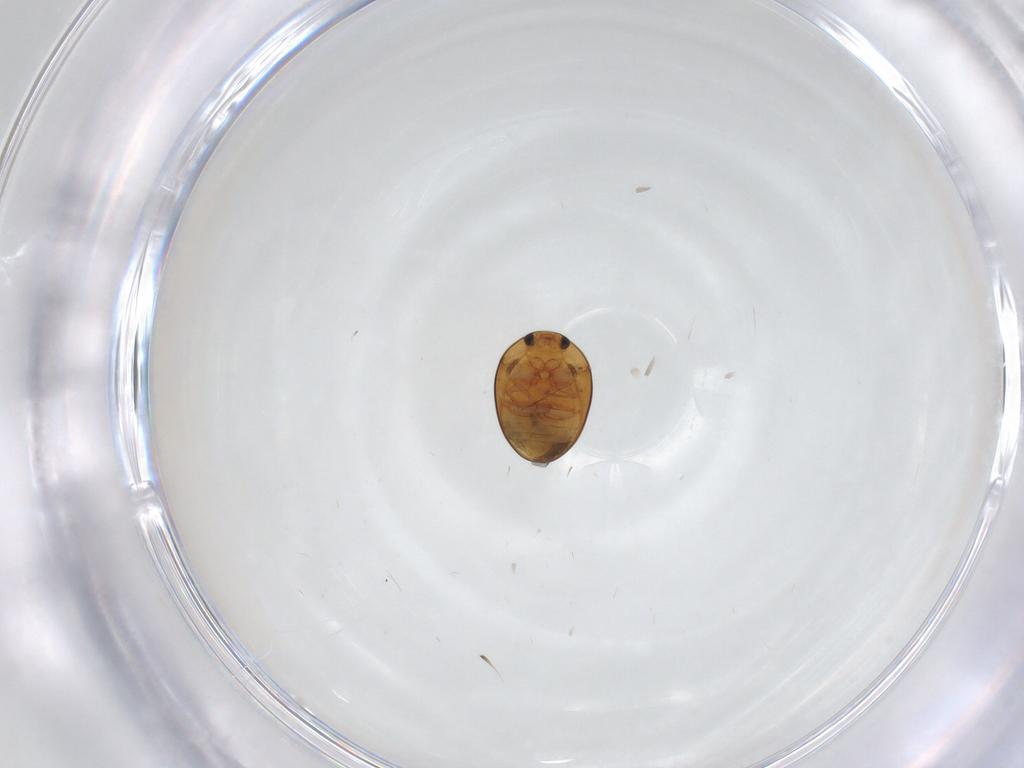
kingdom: Animalia
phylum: Arthropoda
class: Insecta
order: Coleoptera
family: Phalacridae
